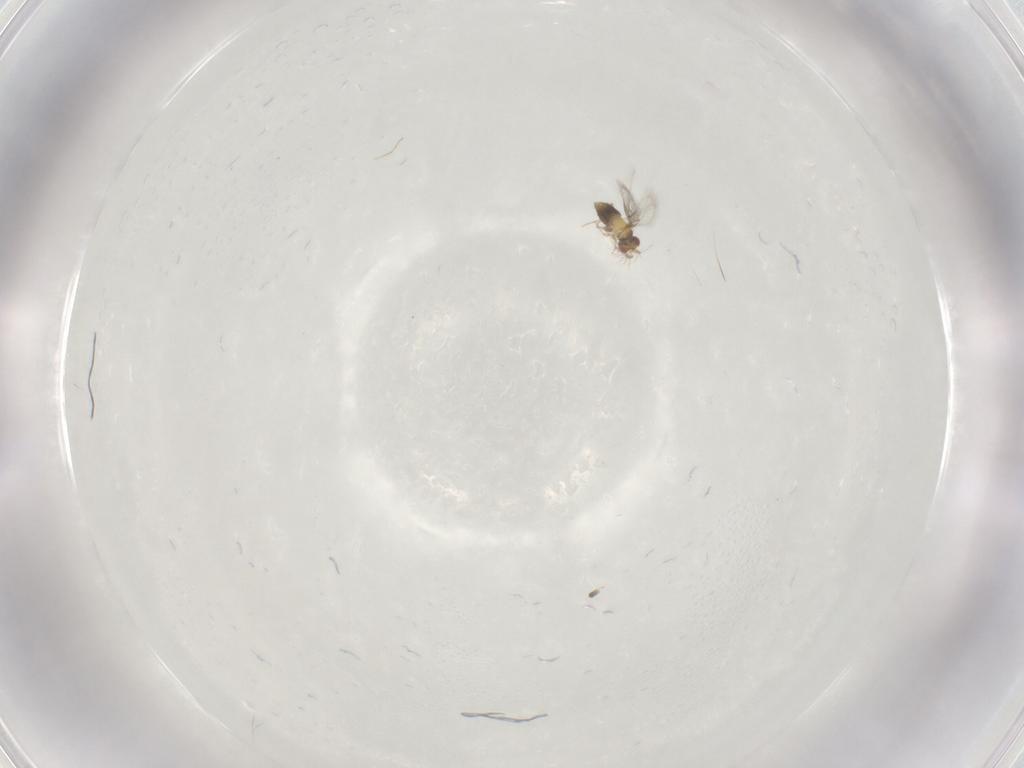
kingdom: Animalia
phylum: Arthropoda
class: Insecta
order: Hymenoptera
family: Trichogrammatidae
